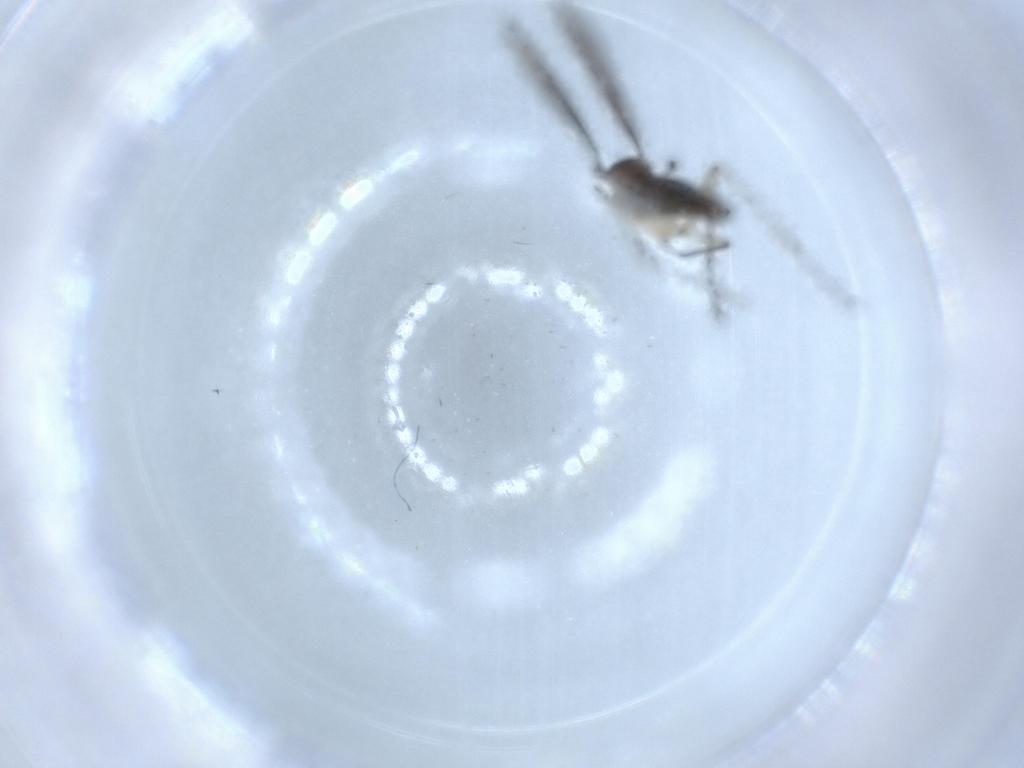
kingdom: Animalia
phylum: Arthropoda
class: Insecta
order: Diptera
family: Sciaridae
